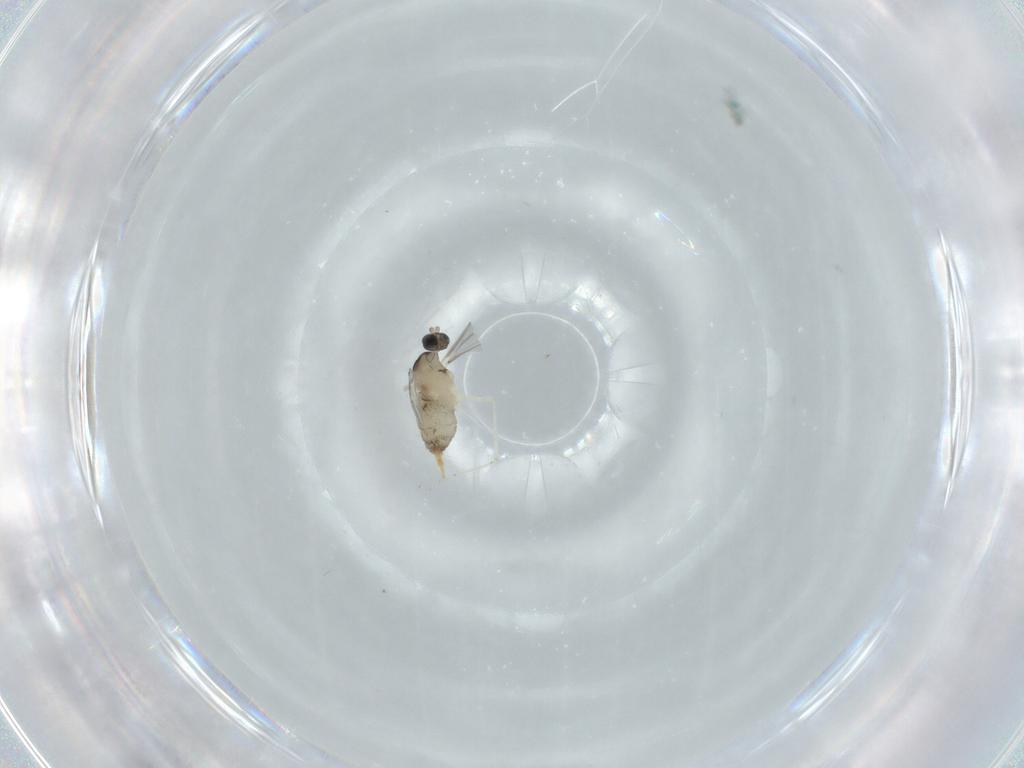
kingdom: Animalia
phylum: Arthropoda
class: Insecta
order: Diptera
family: Cecidomyiidae
